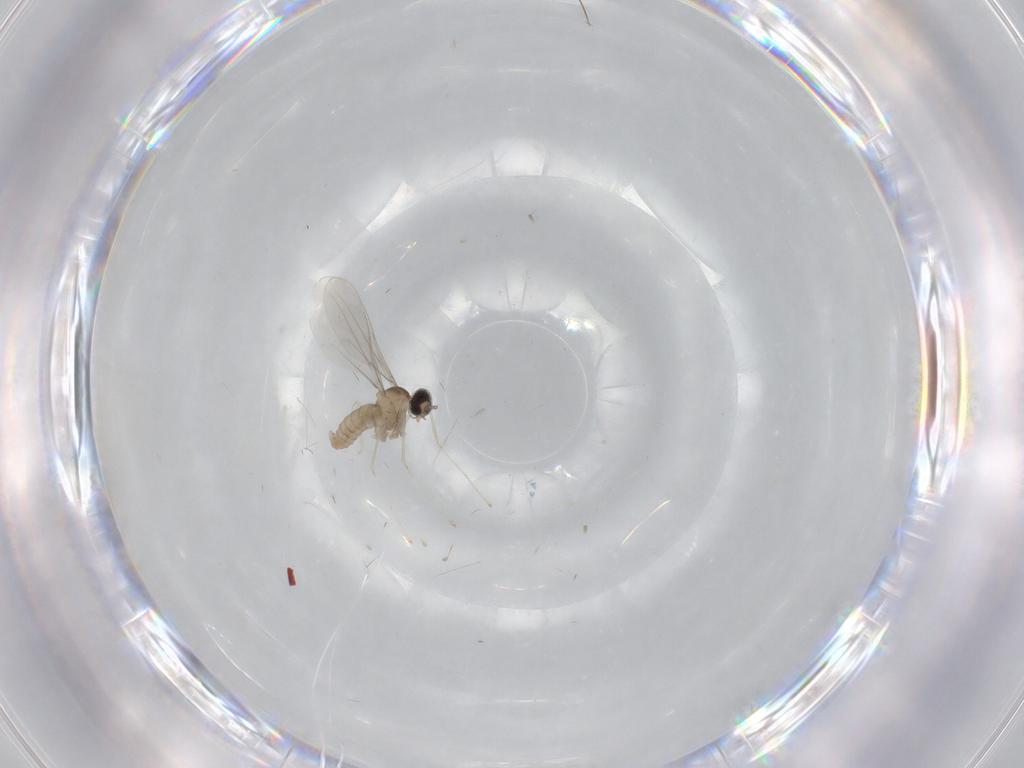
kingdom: Animalia
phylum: Arthropoda
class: Insecta
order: Diptera
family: Cecidomyiidae
